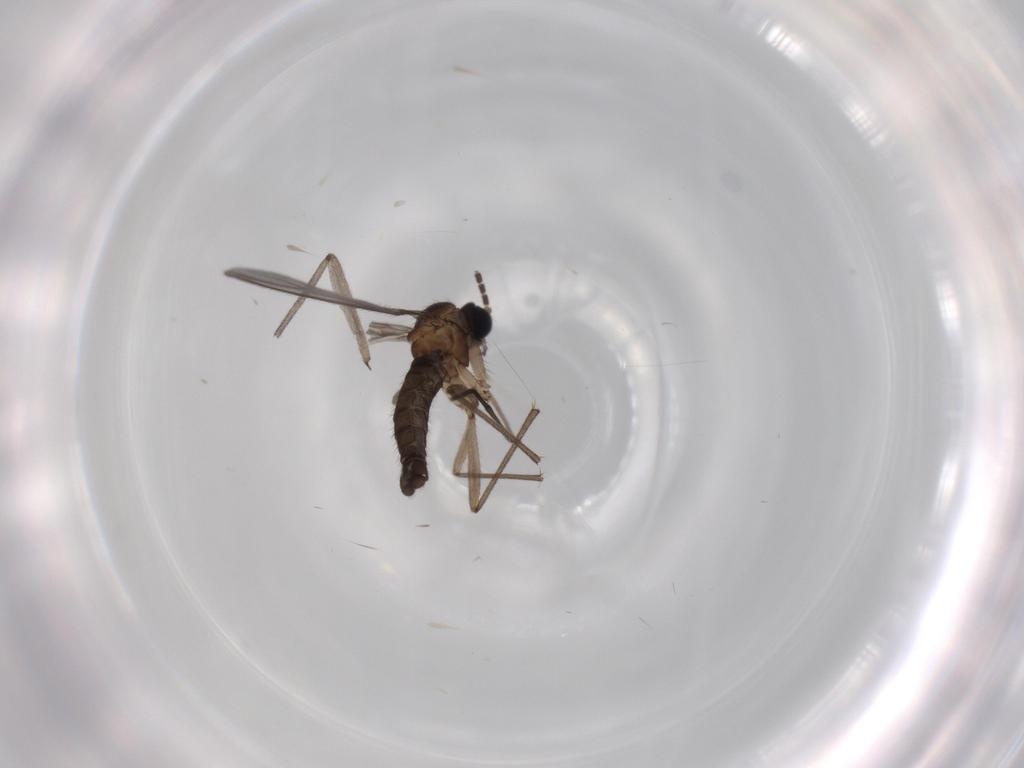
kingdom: Animalia
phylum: Arthropoda
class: Insecta
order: Diptera
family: Sciaridae
